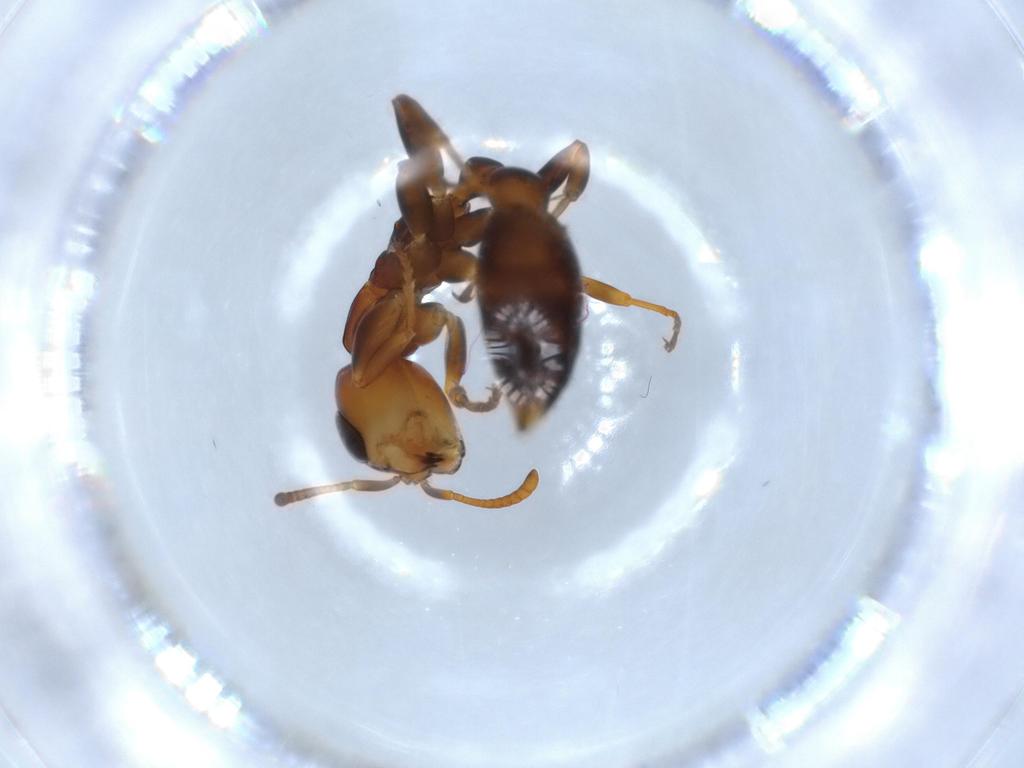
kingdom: Animalia
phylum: Arthropoda
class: Insecta
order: Hymenoptera
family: Formicidae
